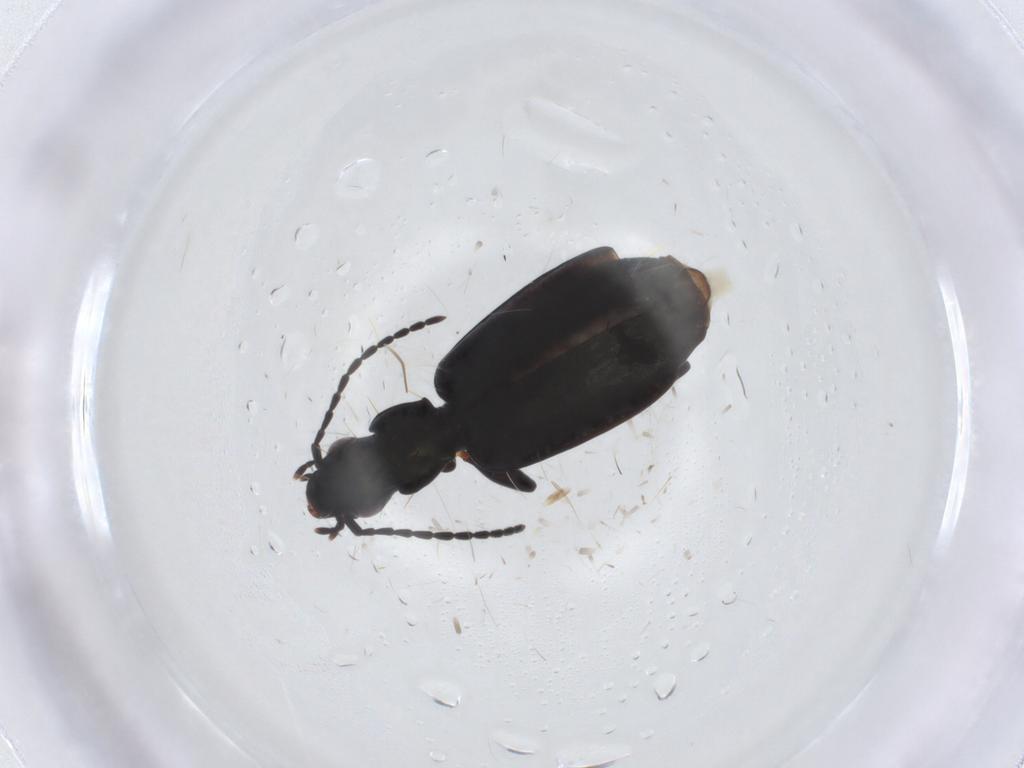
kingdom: Animalia
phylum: Arthropoda
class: Insecta
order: Coleoptera
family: Carabidae
